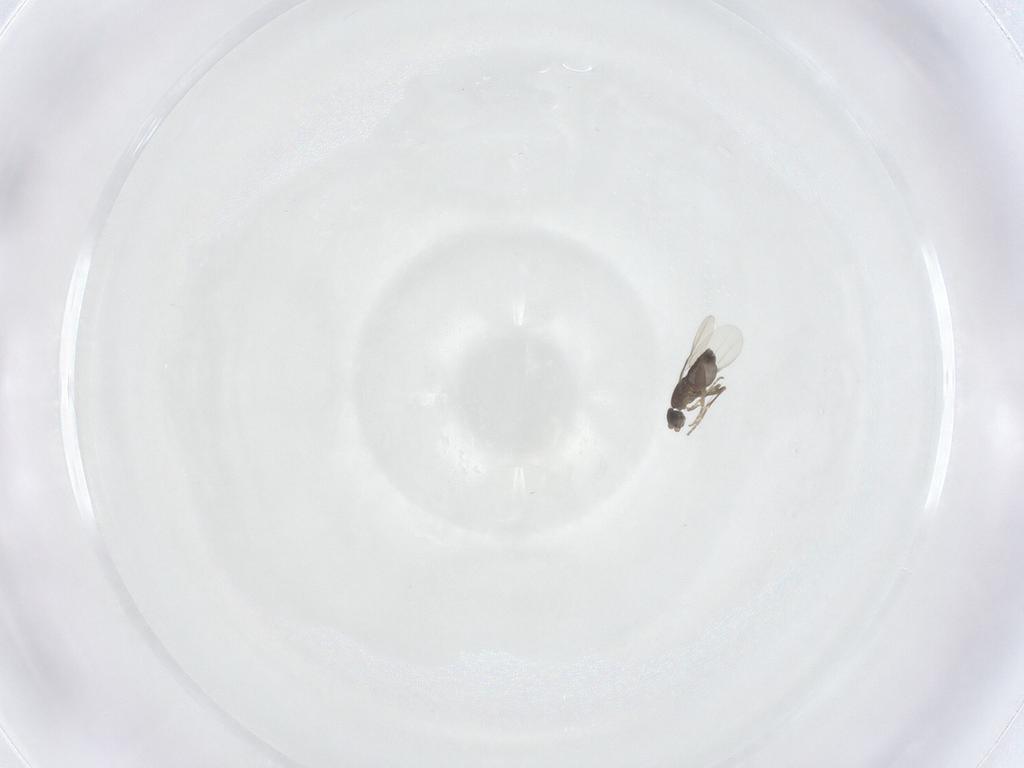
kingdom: Animalia
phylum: Arthropoda
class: Insecta
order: Diptera
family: Phoridae
